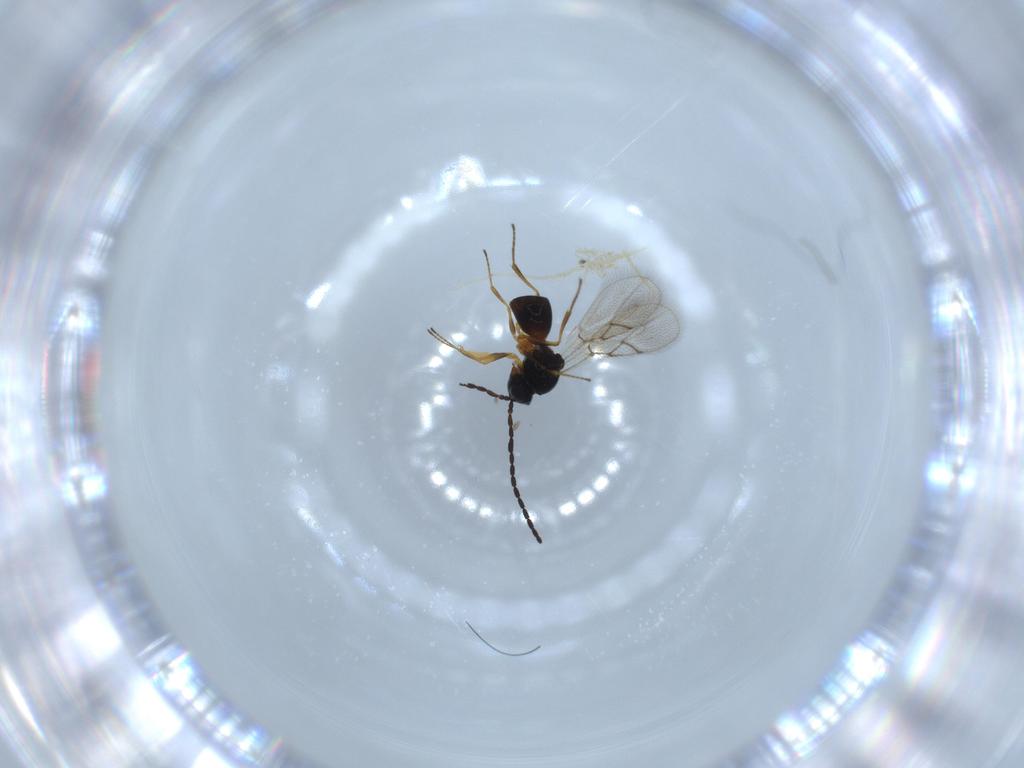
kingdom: Animalia
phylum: Arthropoda
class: Insecta
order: Hymenoptera
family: Figitidae
